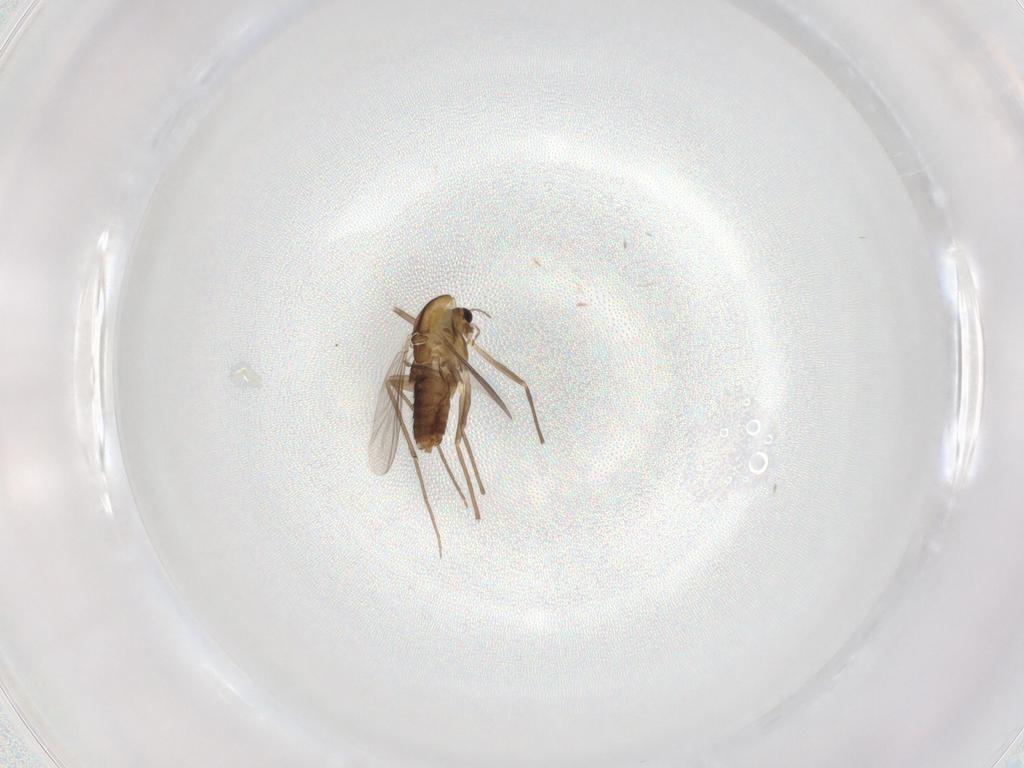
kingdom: Animalia
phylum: Arthropoda
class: Insecta
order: Diptera
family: Chironomidae
